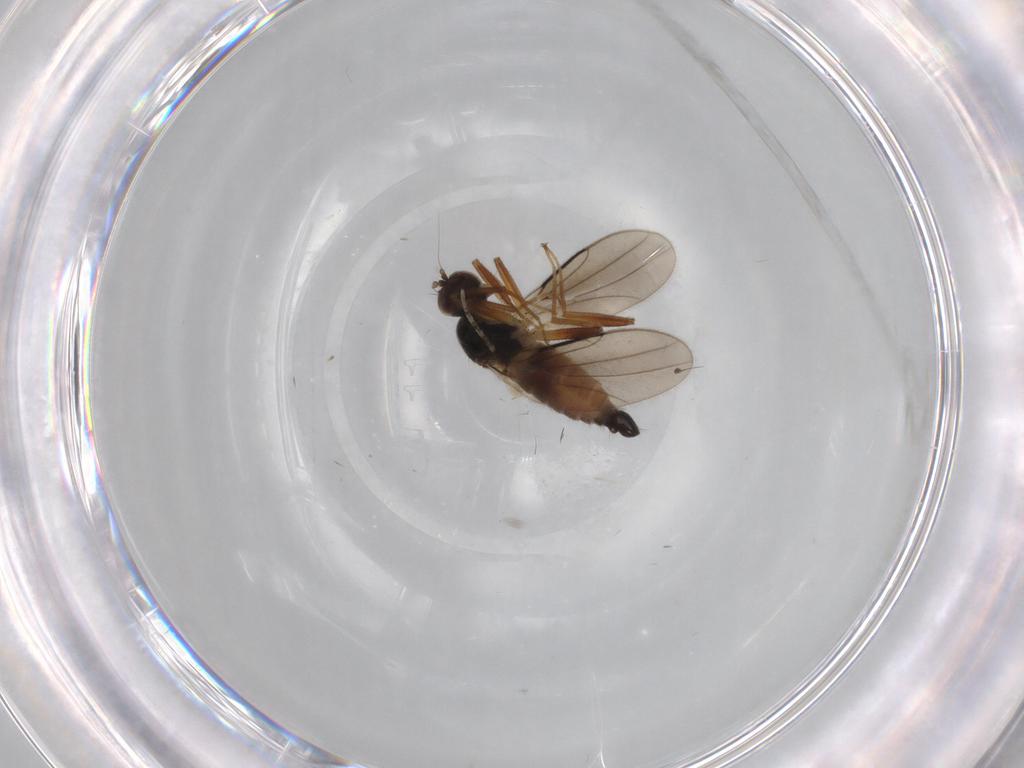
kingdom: Animalia
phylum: Arthropoda
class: Insecta
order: Diptera
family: Hybotidae
